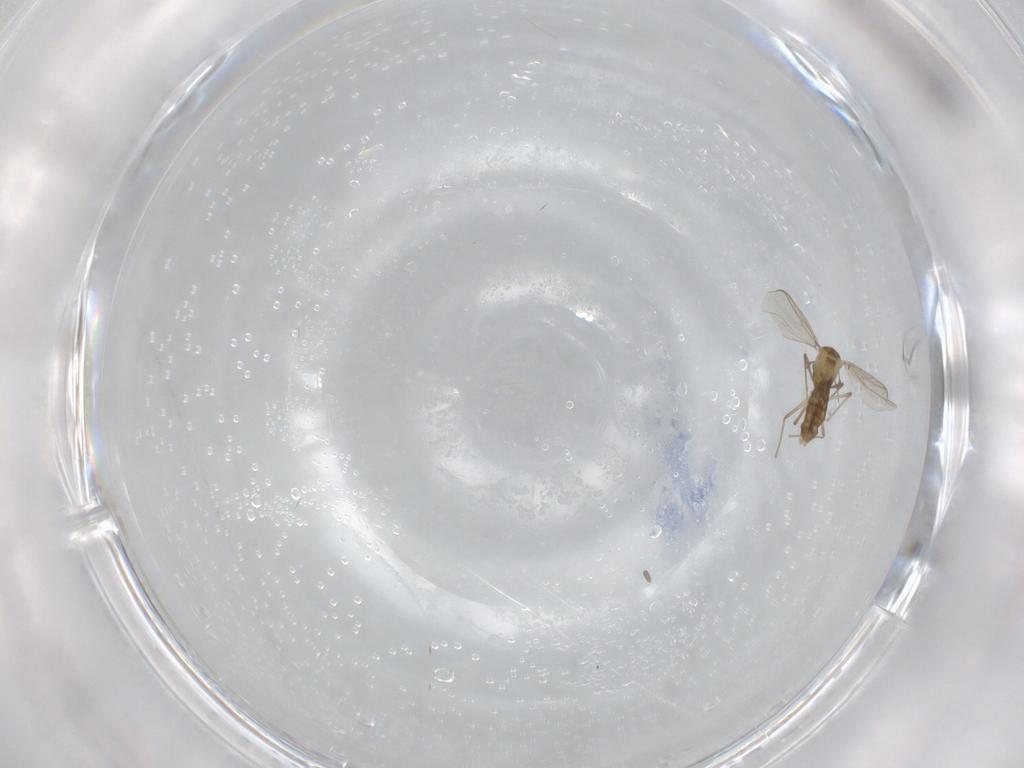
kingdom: Animalia
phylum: Arthropoda
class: Insecta
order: Diptera
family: Chironomidae
